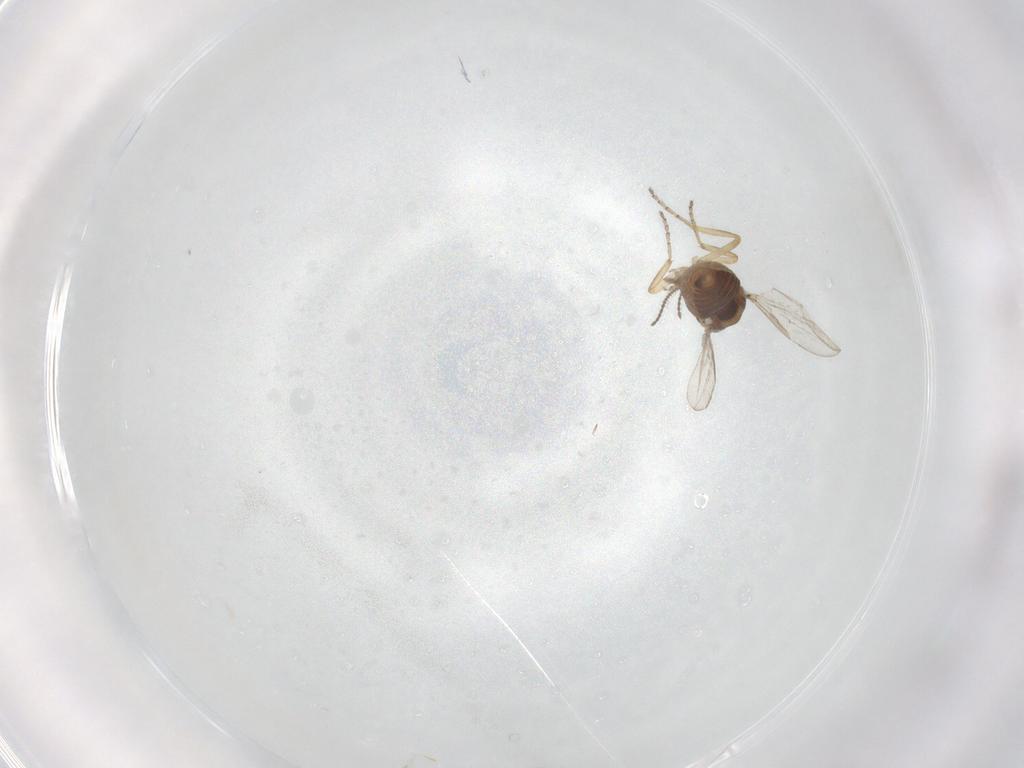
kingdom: Animalia
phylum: Arthropoda
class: Insecta
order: Diptera
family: Ceratopogonidae
